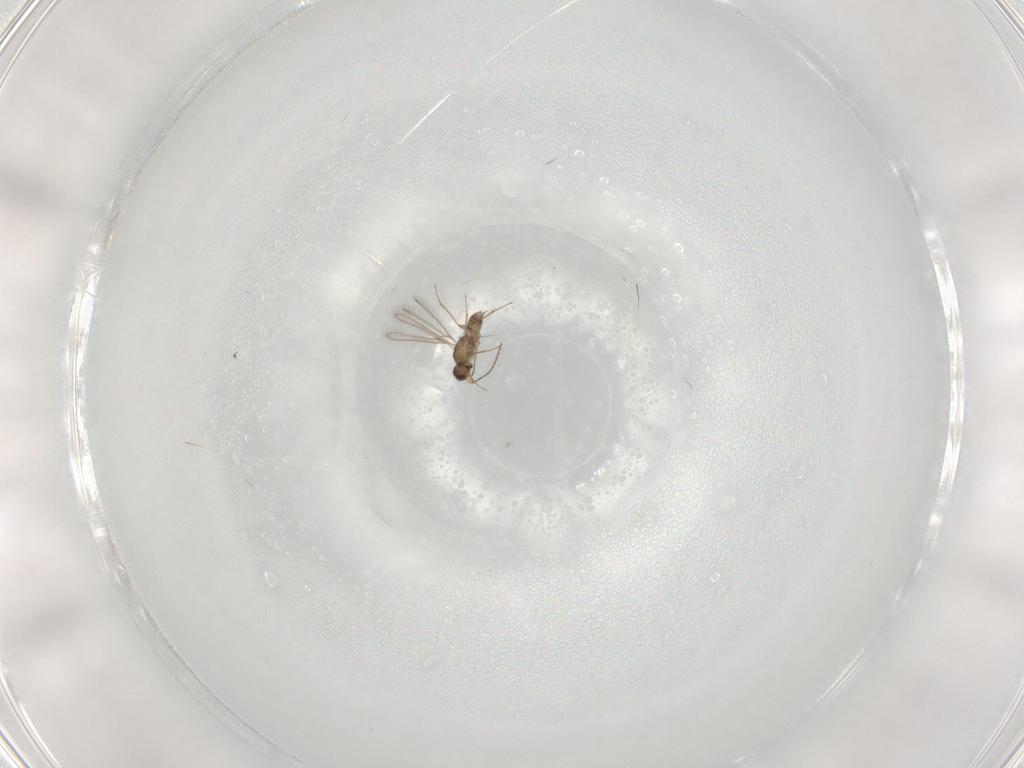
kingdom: Animalia
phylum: Arthropoda
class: Insecta
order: Hymenoptera
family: Mymaridae
